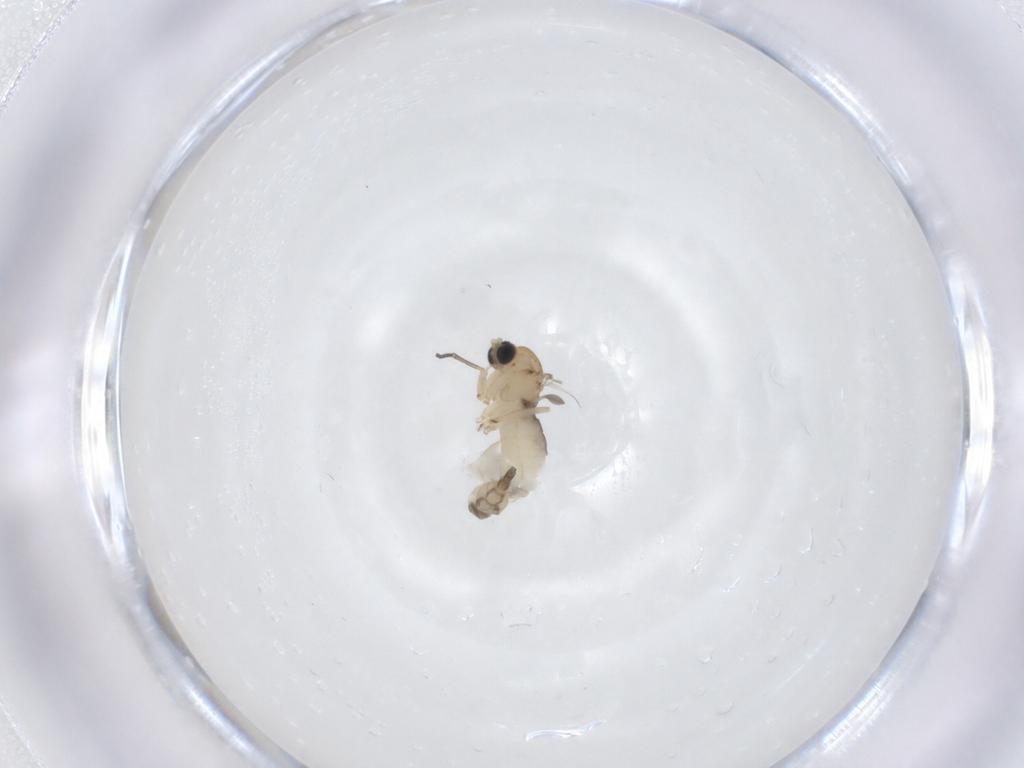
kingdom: Animalia
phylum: Arthropoda
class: Insecta
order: Diptera
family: Sciaridae
